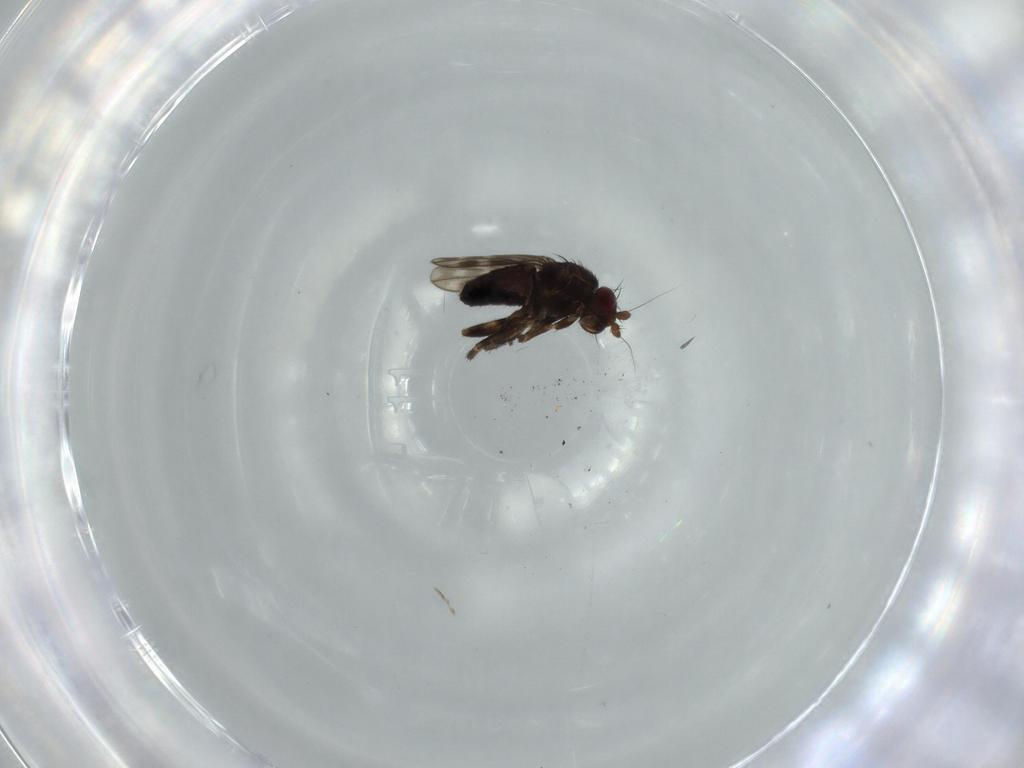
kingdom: Animalia
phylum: Arthropoda
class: Insecta
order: Diptera
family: Sphaeroceridae
